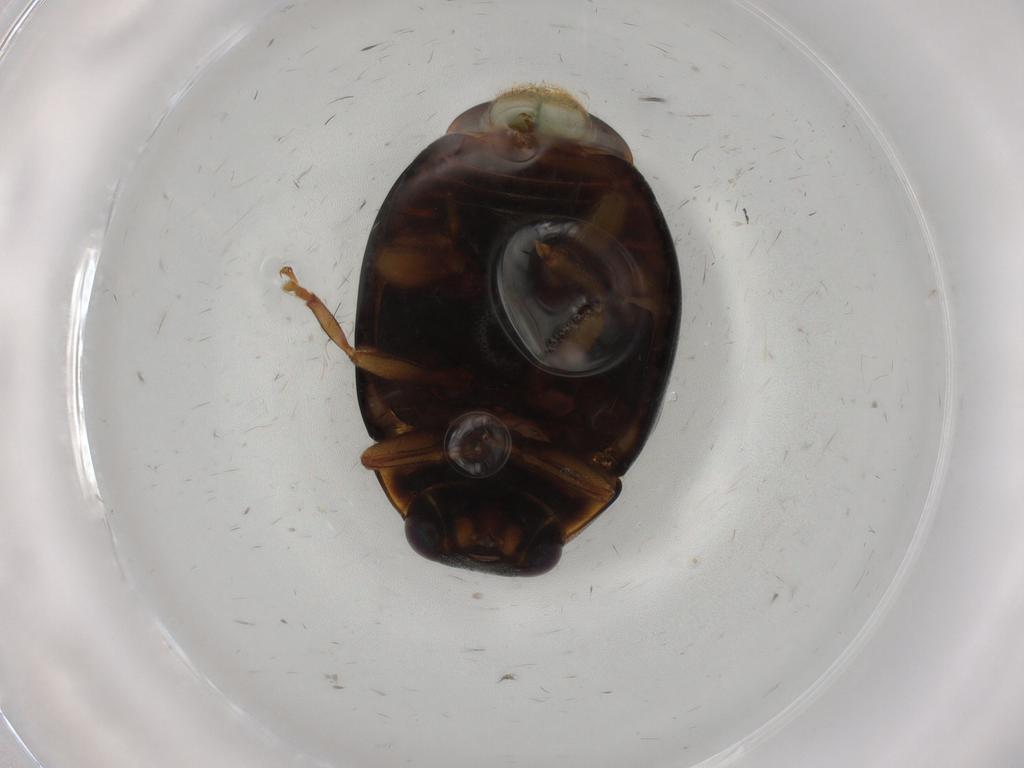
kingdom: Animalia
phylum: Arthropoda
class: Insecta
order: Coleoptera
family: Coccinellidae
